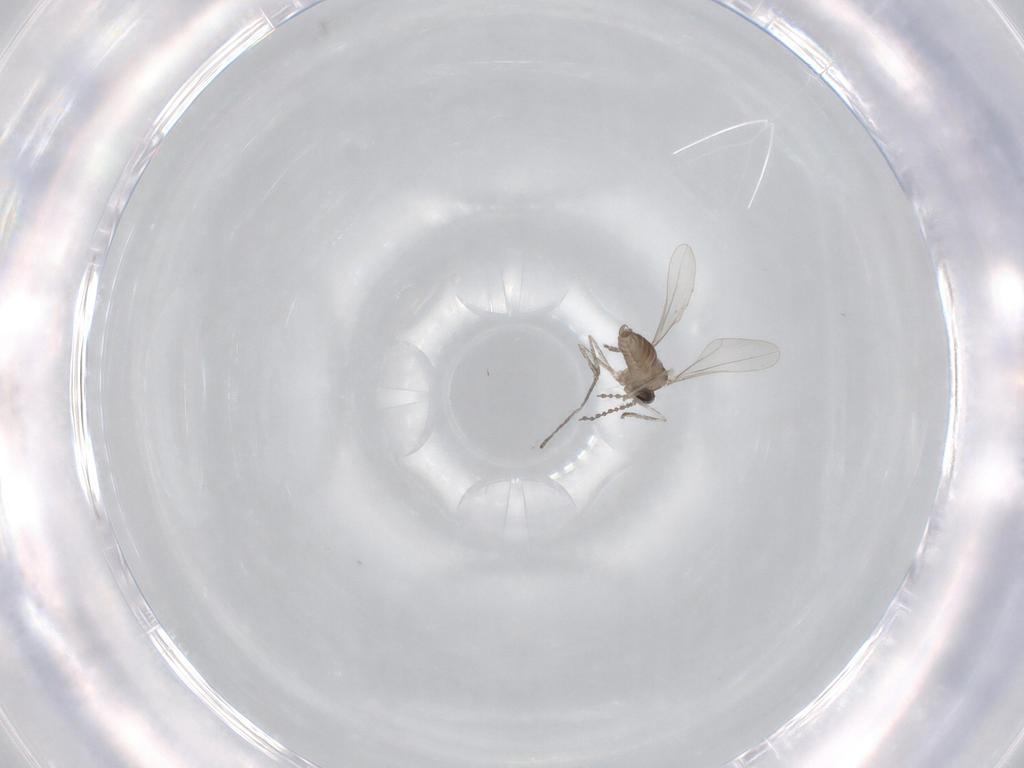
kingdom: Animalia
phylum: Arthropoda
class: Insecta
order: Diptera
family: Cecidomyiidae
